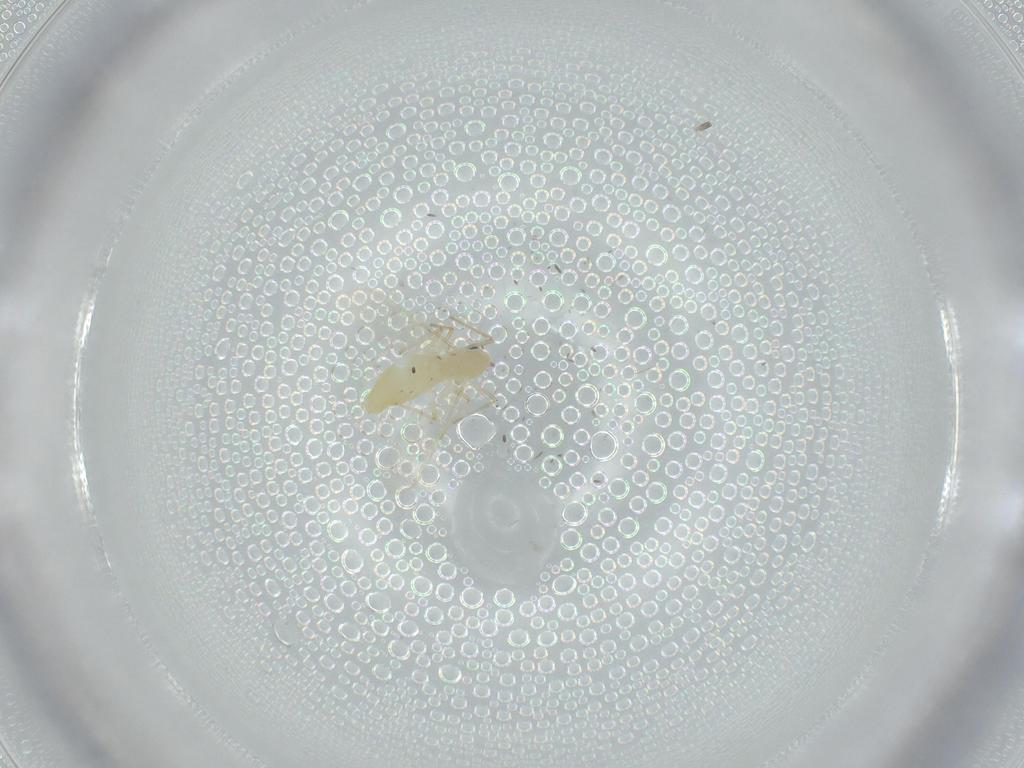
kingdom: Animalia
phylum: Arthropoda
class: Insecta
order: Diptera
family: Chironomidae
